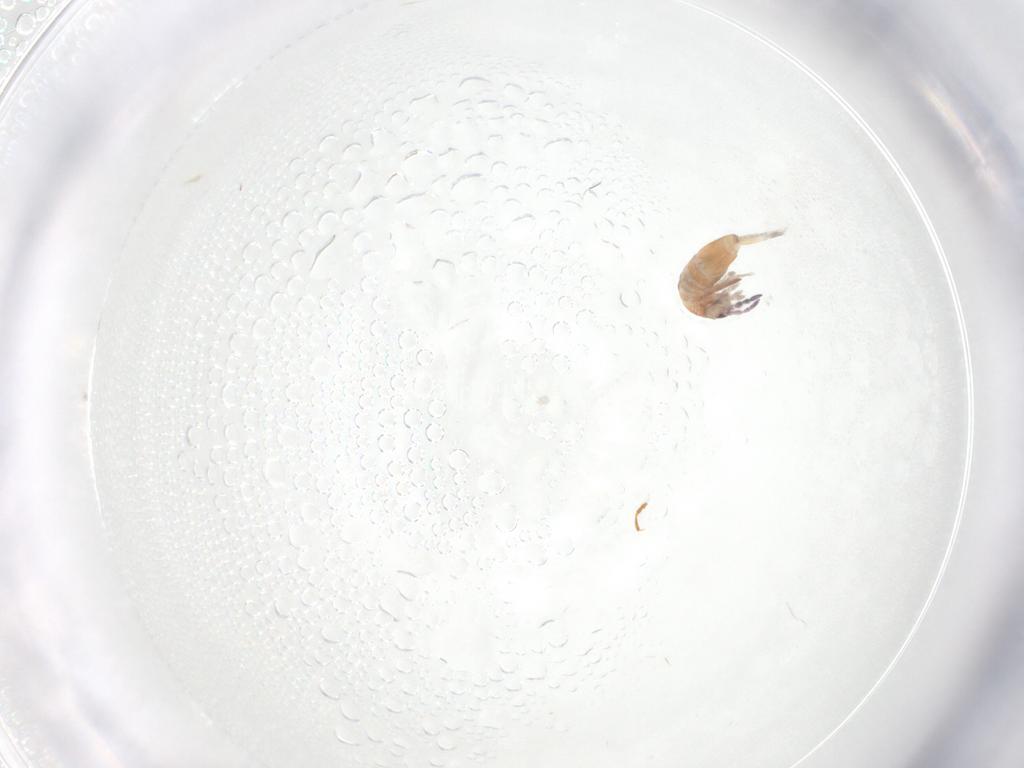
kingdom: Animalia
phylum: Arthropoda
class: Collembola
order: Entomobryomorpha
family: Entomobryidae
